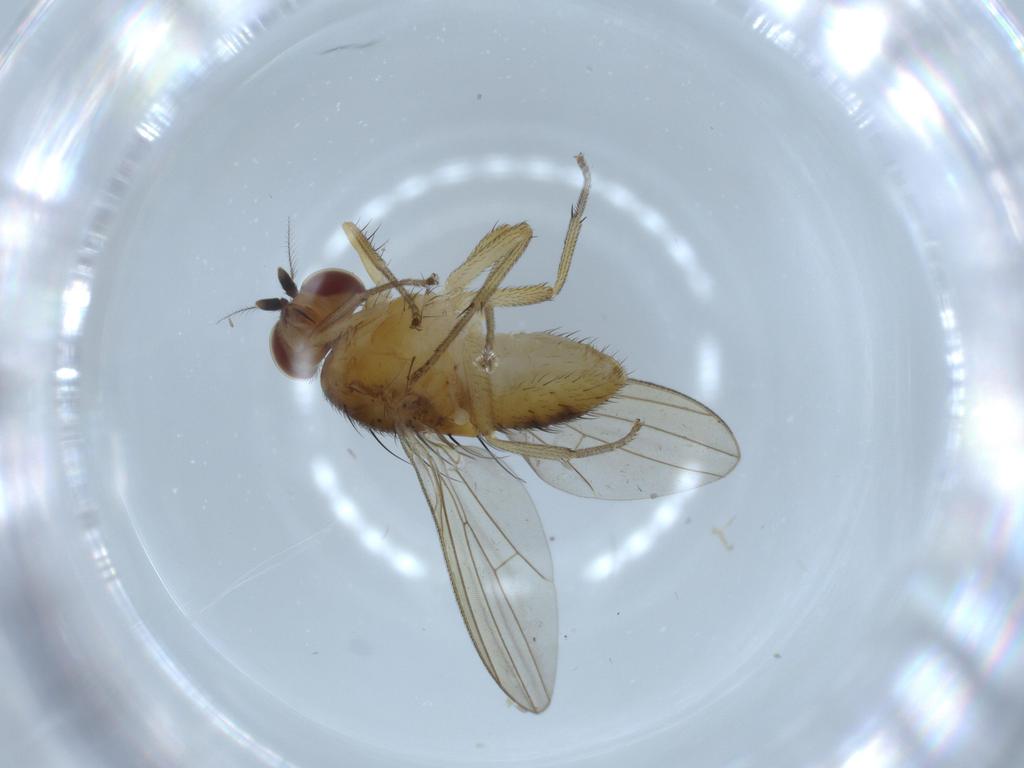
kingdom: Animalia
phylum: Arthropoda
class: Insecta
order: Diptera
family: Lauxaniidae
